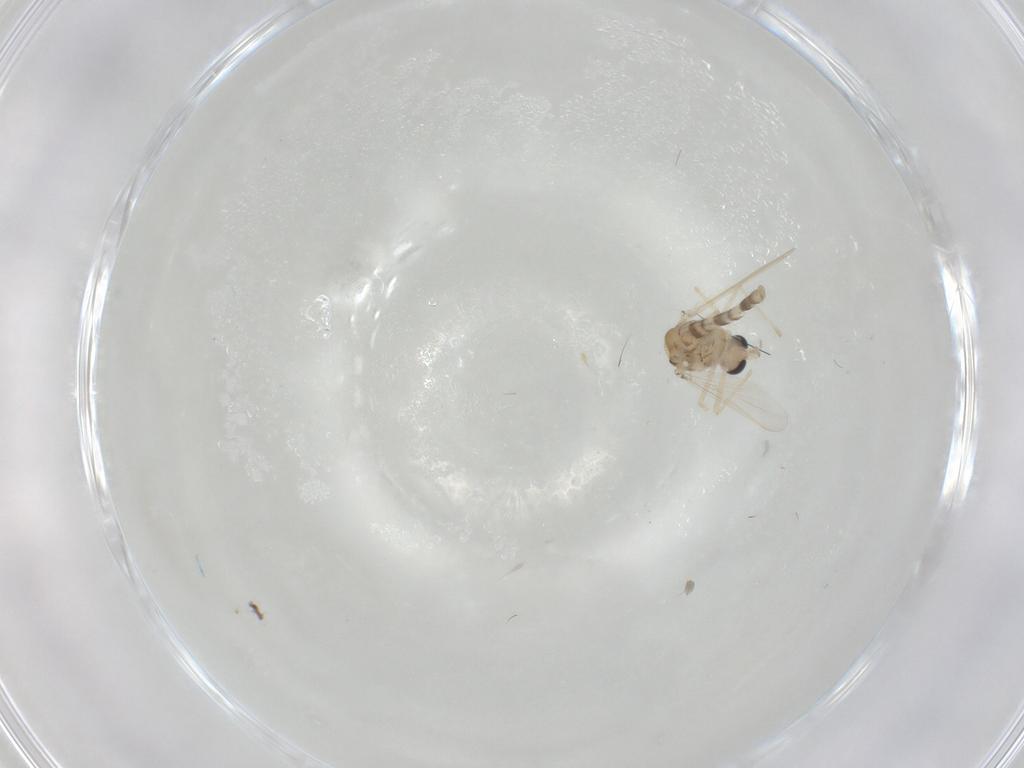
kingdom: Animalia
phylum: Arthropoda
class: Insecta
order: Diptera
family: Chironomidae
